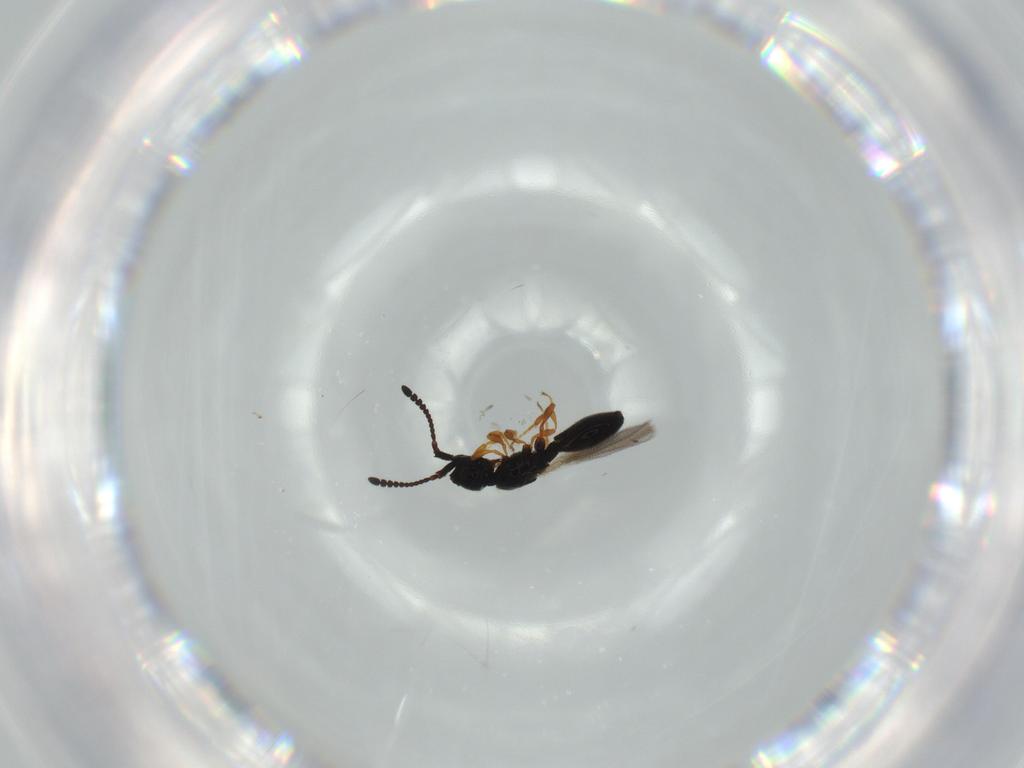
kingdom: Animalia
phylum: Arthropoda
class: Insecta
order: Hymenoptera
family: Diapriidae
